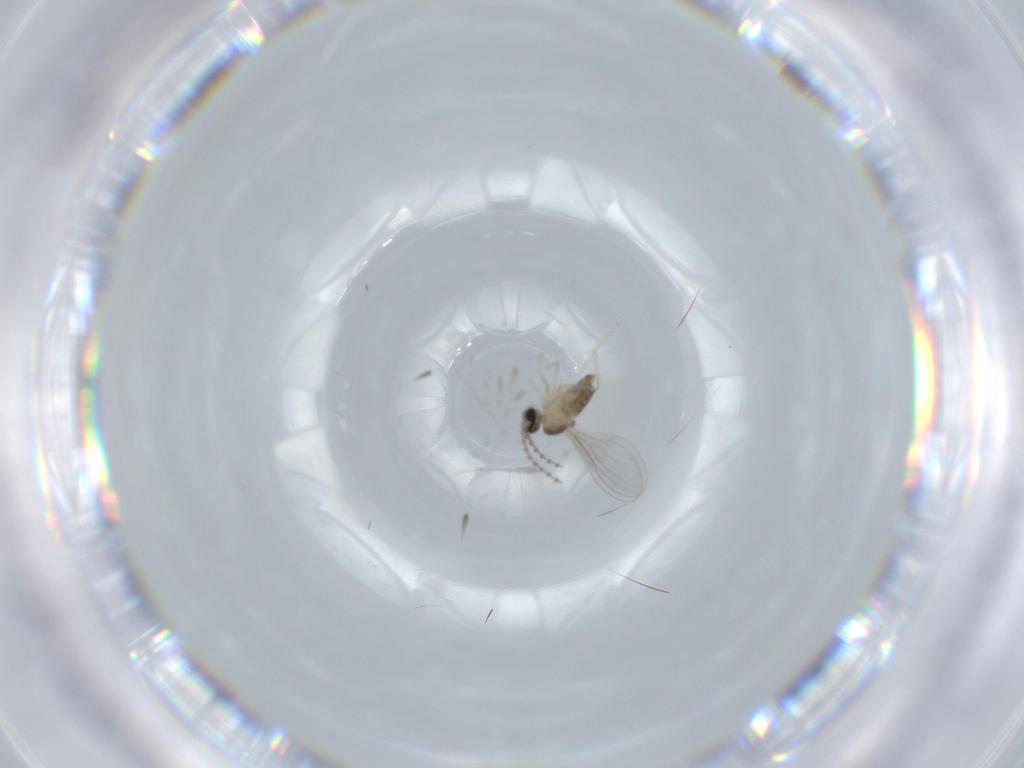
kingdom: Animalia
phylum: Arthropoda
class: Insecta
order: Diptera
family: Cecidomyiidae
